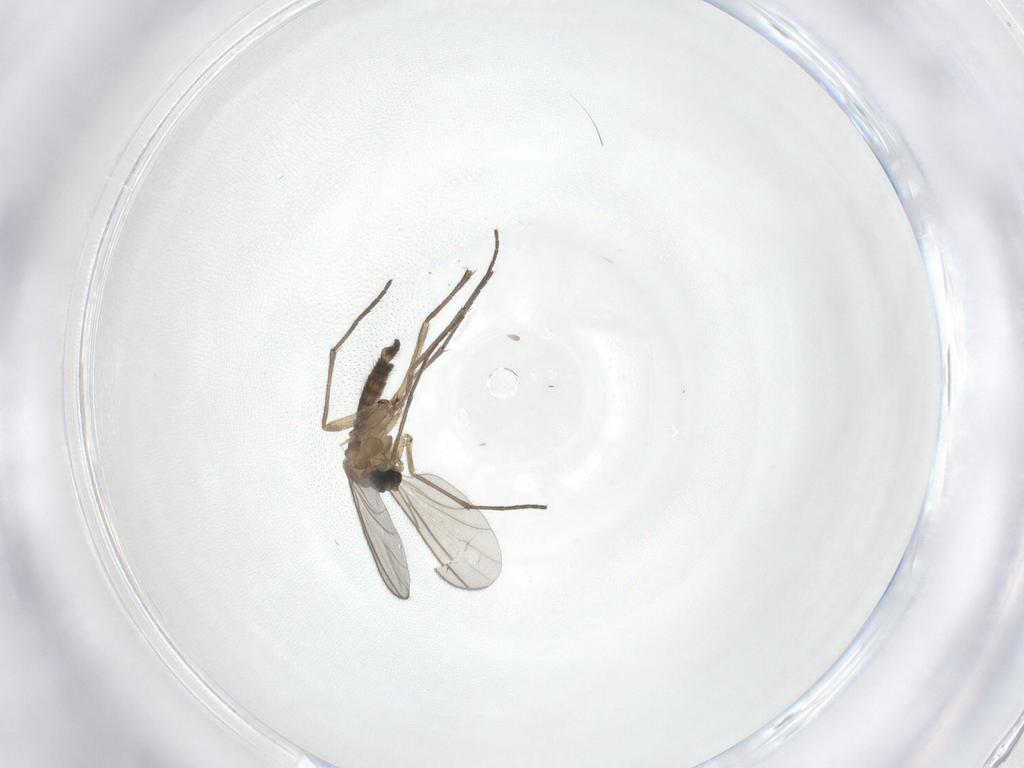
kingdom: Animalia
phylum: Arthropoda
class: Insecta
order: Diptera
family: Sciaridae
